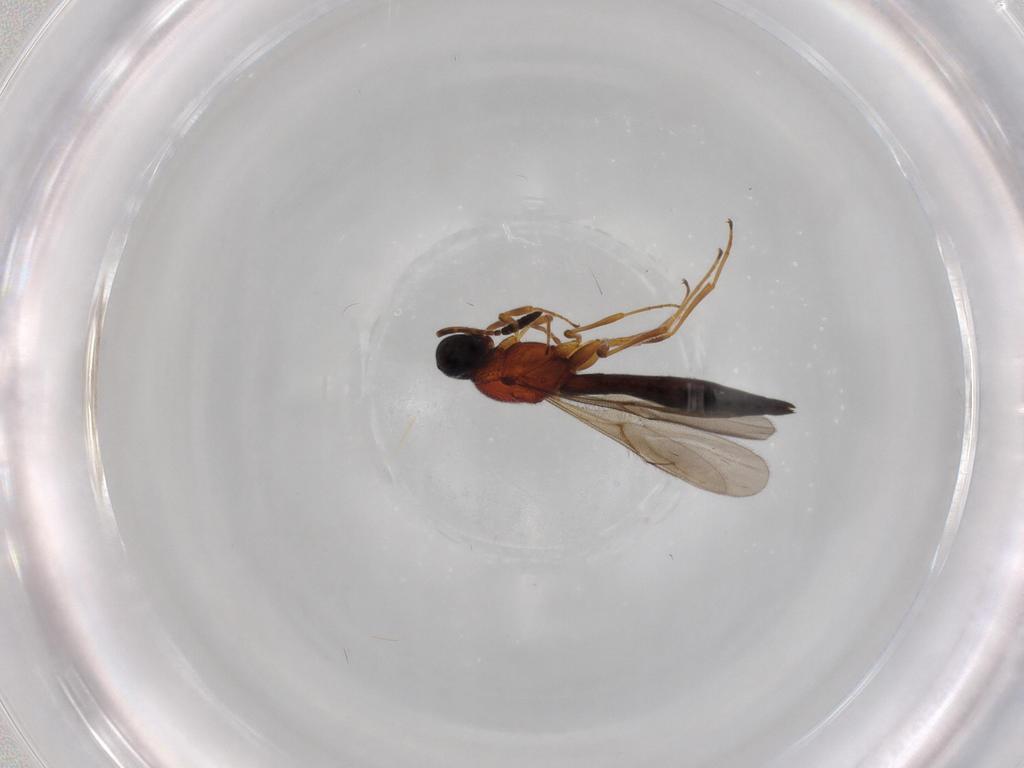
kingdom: Animalia
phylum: Arthropoda
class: Insecta
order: Hymenoptera
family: Scelionidae
